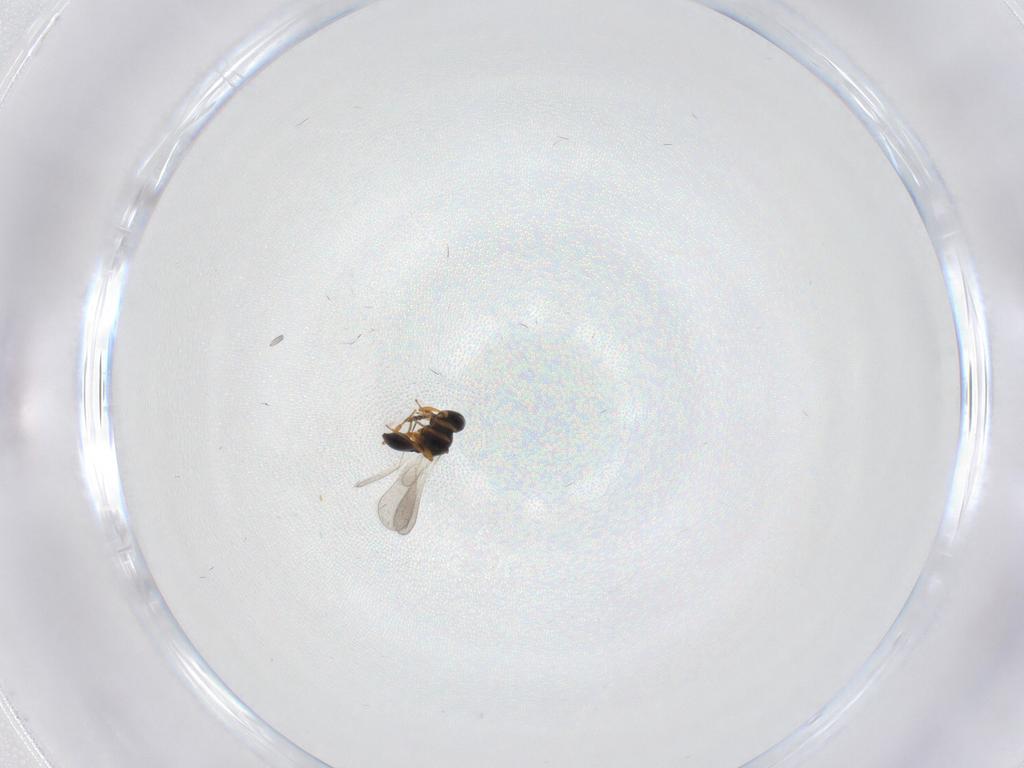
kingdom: Animalia
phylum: Arthropoda
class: Insecta
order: Hymenoptera
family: Platygastridae
